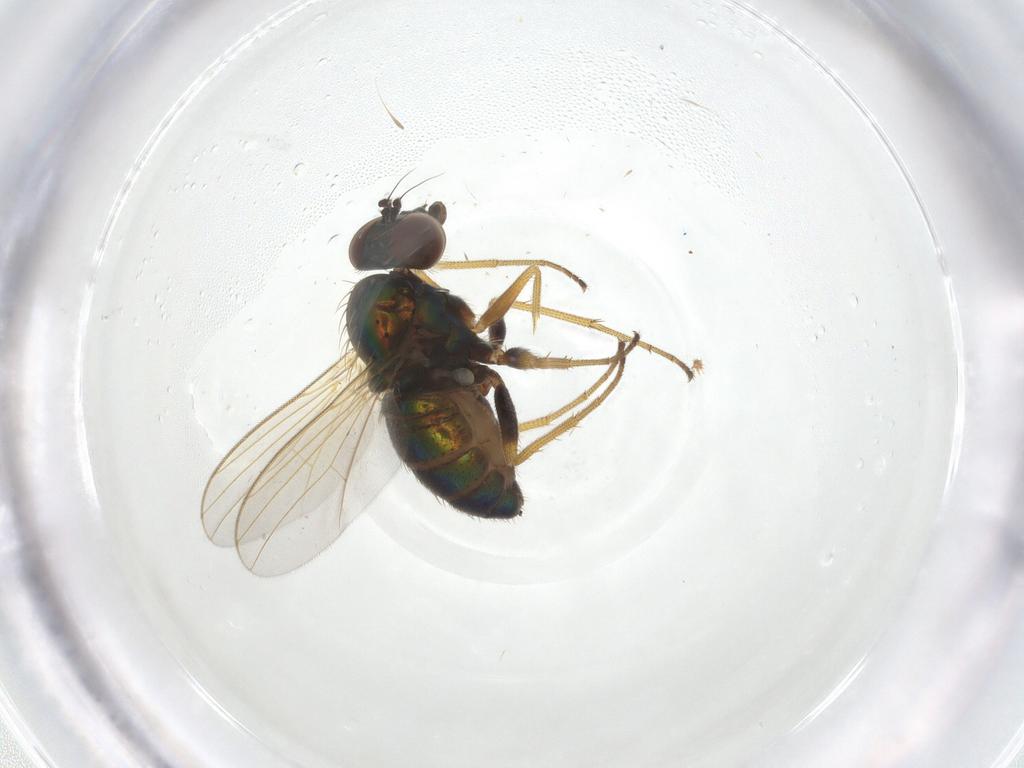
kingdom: Animalia
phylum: Arthropoda
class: Insecta
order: Diptera
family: Dolichopodidae
